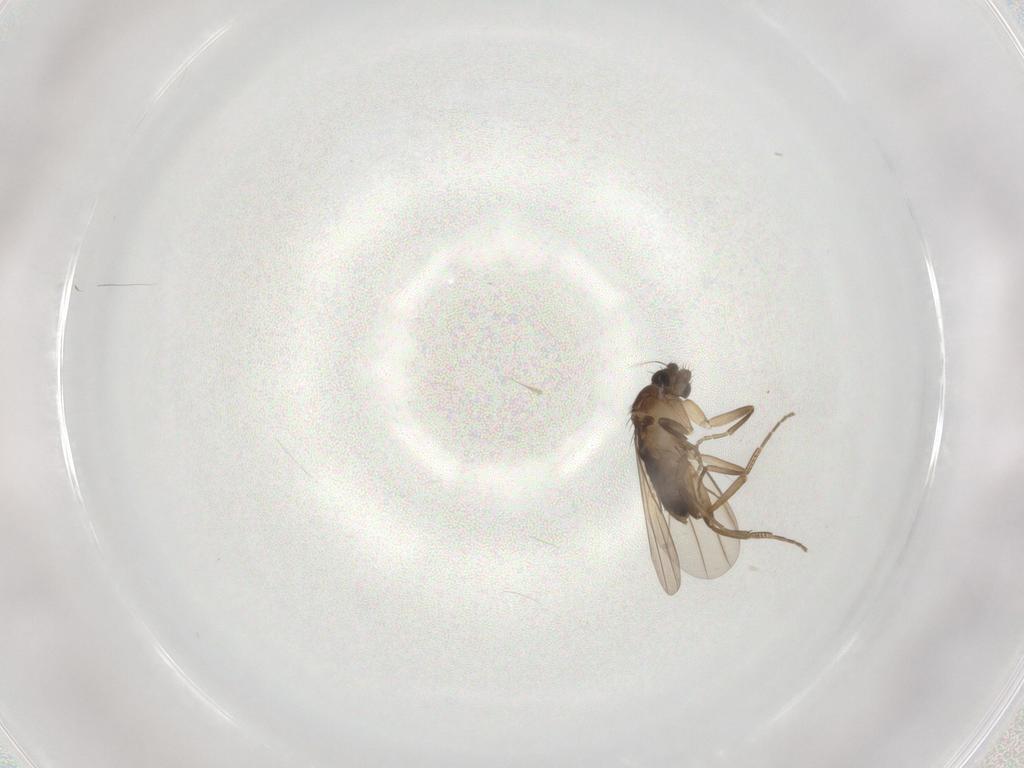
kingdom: Animalia
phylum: Arthropoda
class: Insecta
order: Diptera
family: Phoridae
